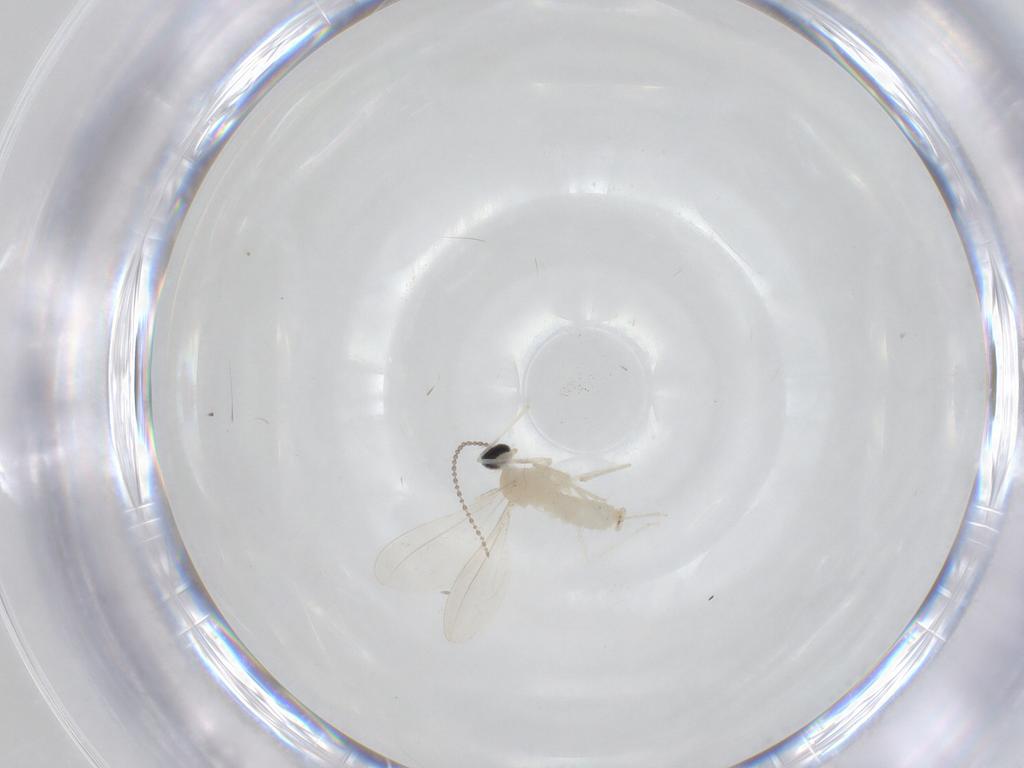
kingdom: Animalia
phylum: Arthropoda
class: Insecta
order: Diptera
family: Cecidomyiidae
